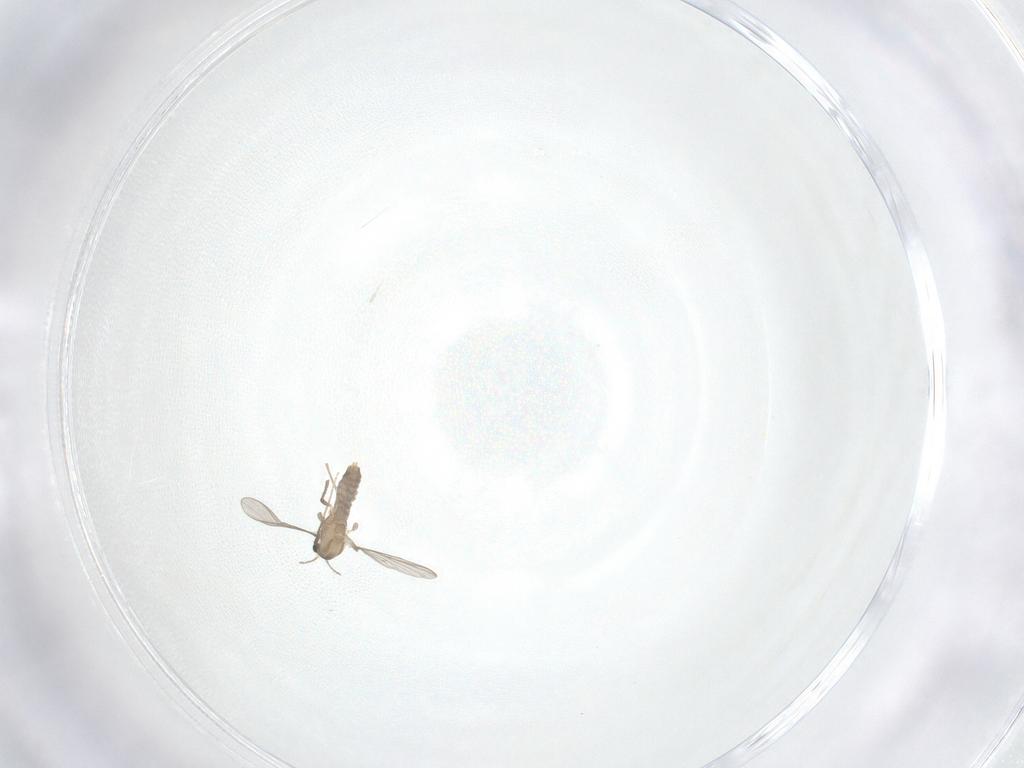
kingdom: Animalia
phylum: Arthropoda
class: Insecta
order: Diptera
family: Chironomidae
